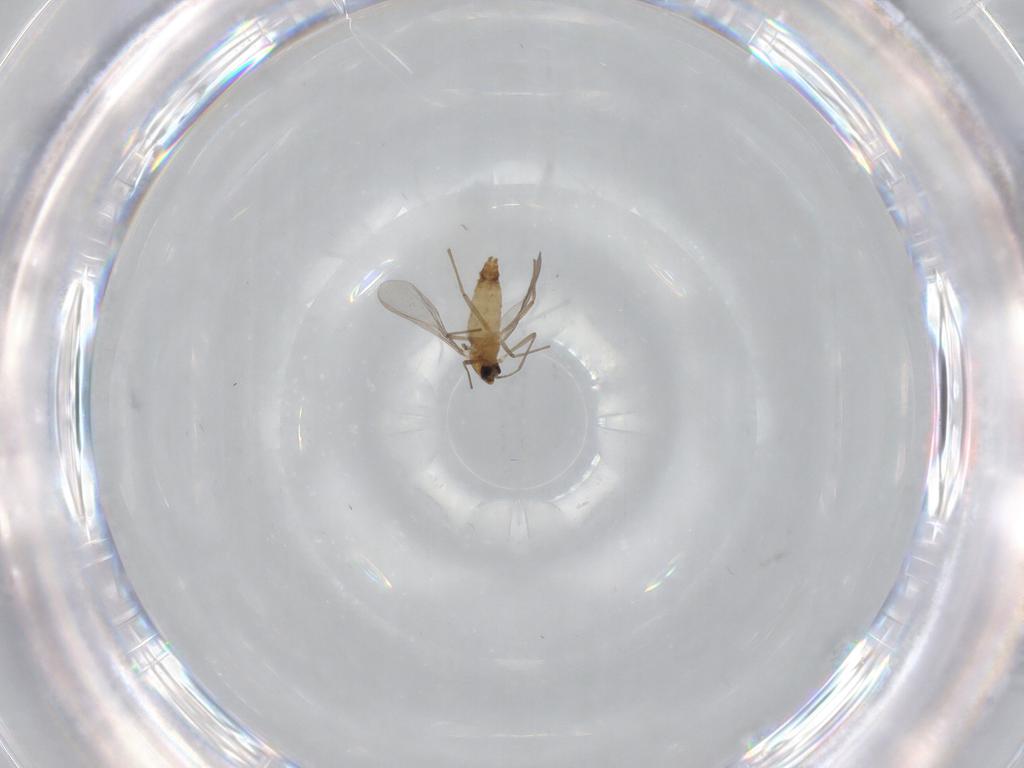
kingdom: Animalia
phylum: Arthropoda
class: Insecta
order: Diptera
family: Chironomidae
